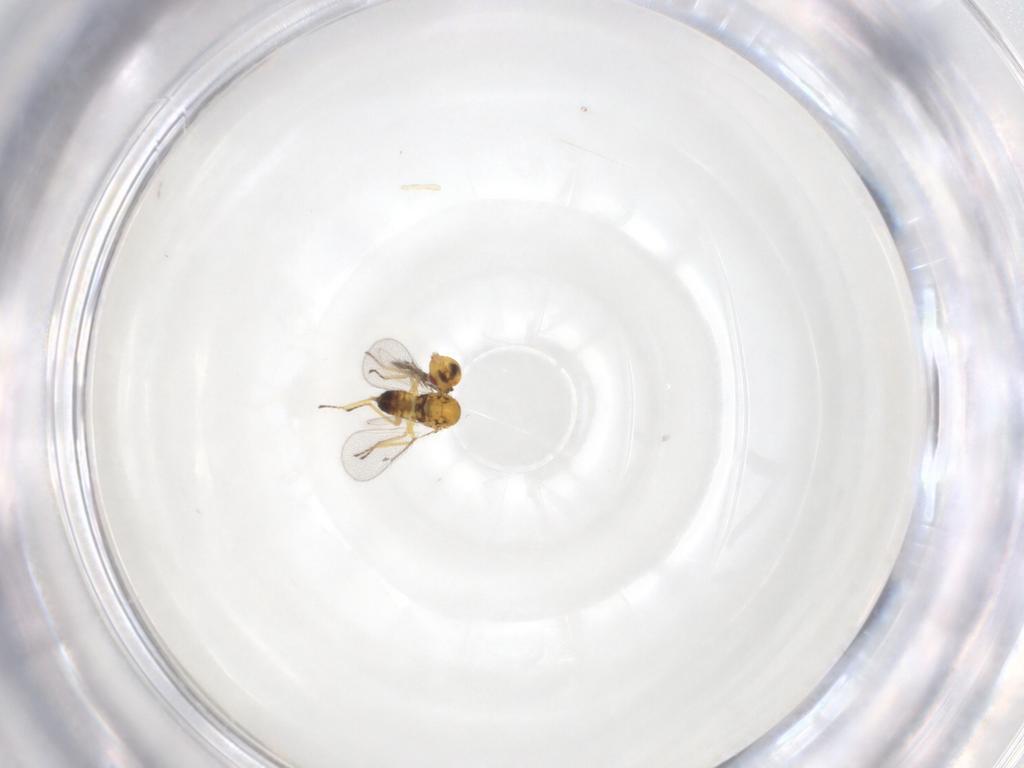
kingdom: Animalia
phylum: Arthropoda
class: Insecta
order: Hymenoptera
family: Eulophidae
